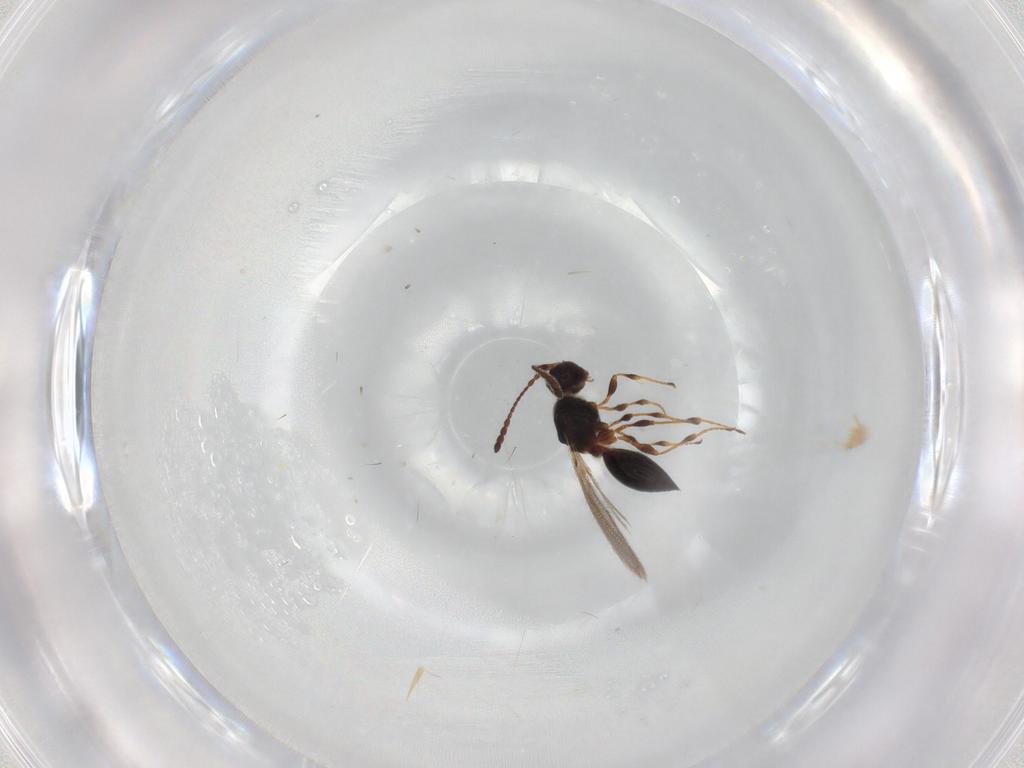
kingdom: Animalia
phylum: Arthropoda
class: Insecta
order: Hymenoptera
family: Diapriidae
